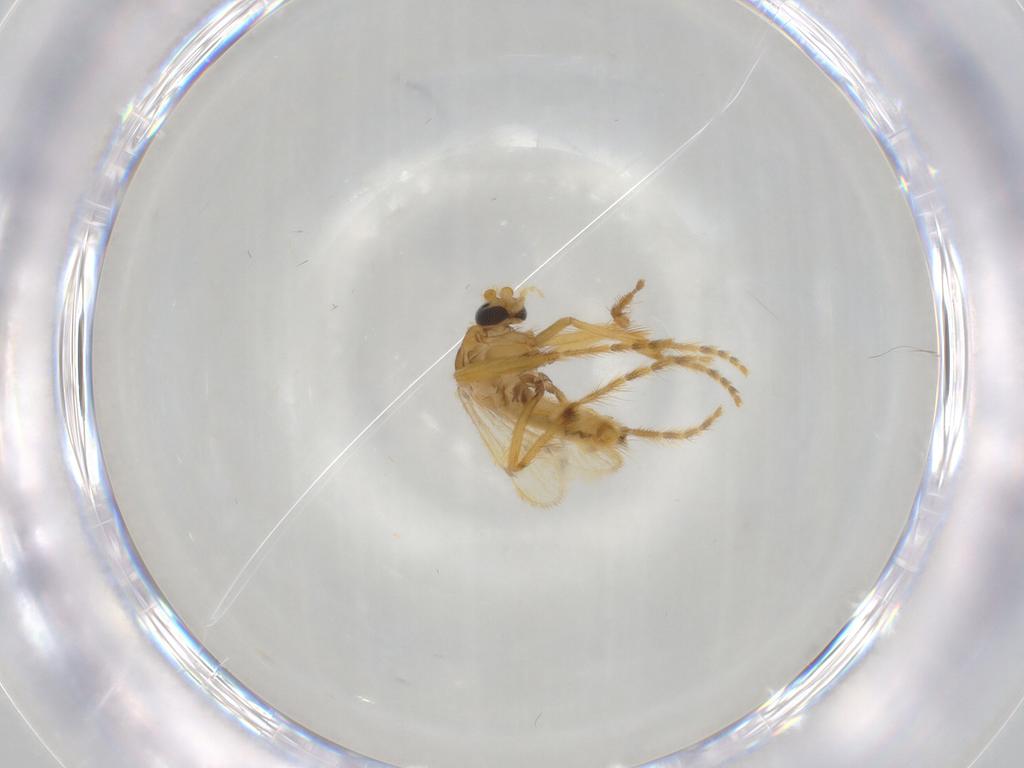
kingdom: Animalia
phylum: Arthropoda
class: Insecta
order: Diptera
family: Corethrellidae
